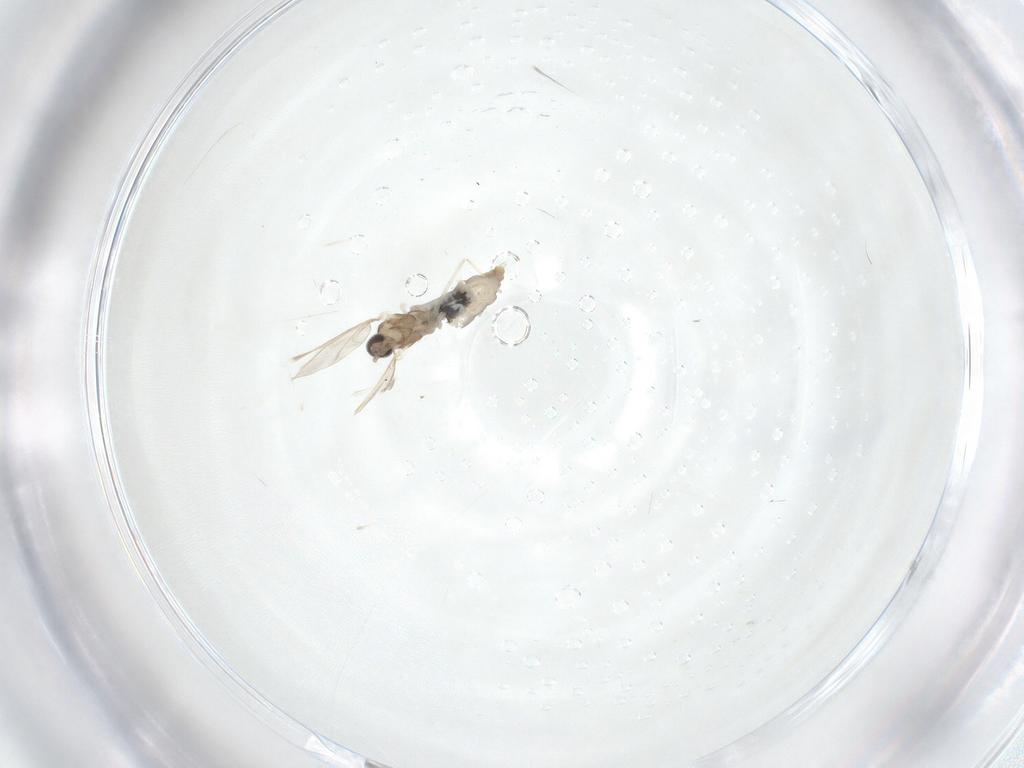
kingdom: Animalia
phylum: Arthropoda
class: Insecta
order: Diptera
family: Cecidomyiidae
